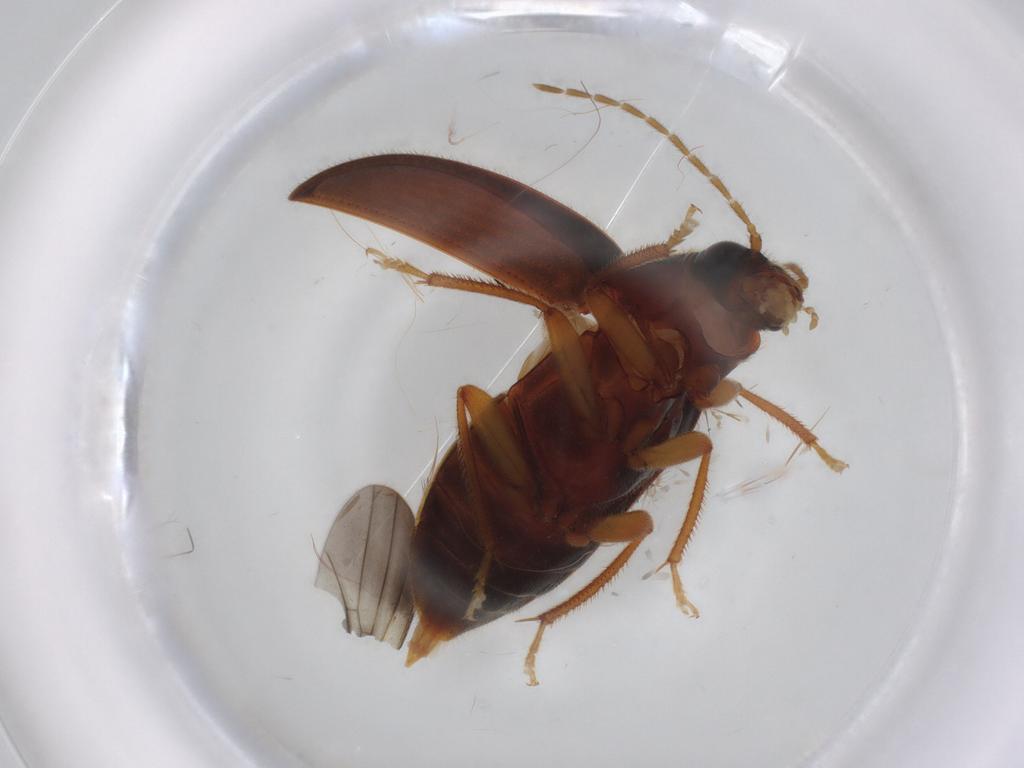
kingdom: Animalia
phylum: Arthropoda
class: Insecta
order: Coleoptera
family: Ptilodactylidae
